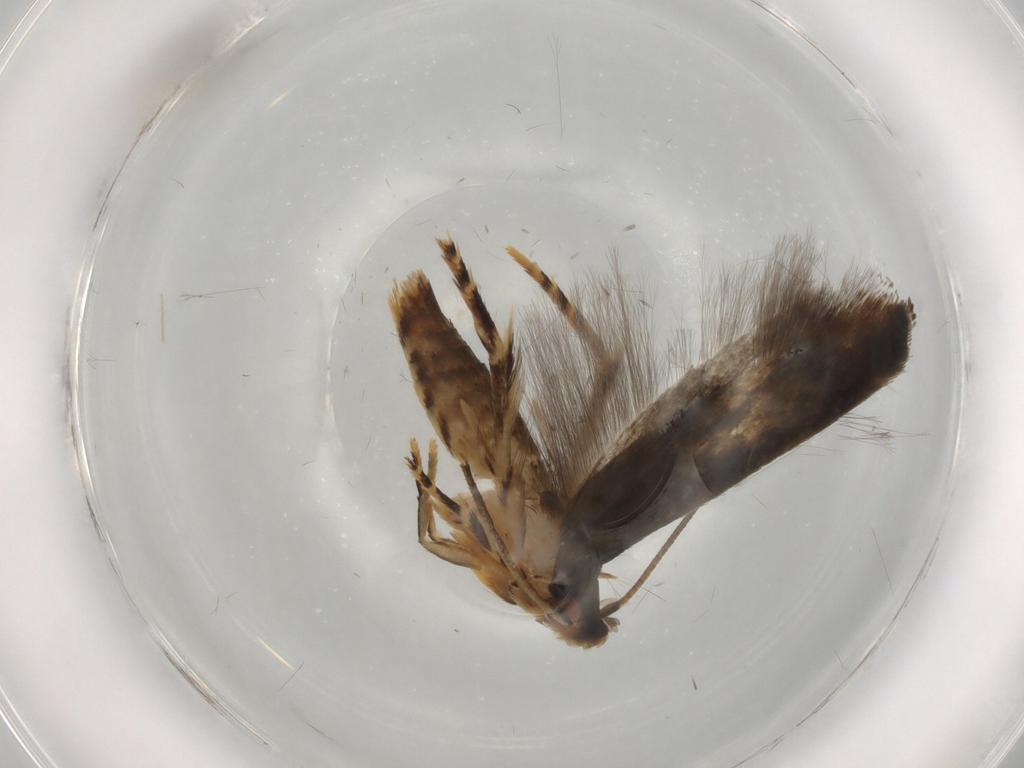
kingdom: Animalia
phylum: Arthropoda
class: Insecta
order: Lepidoptera
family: Momphidae
